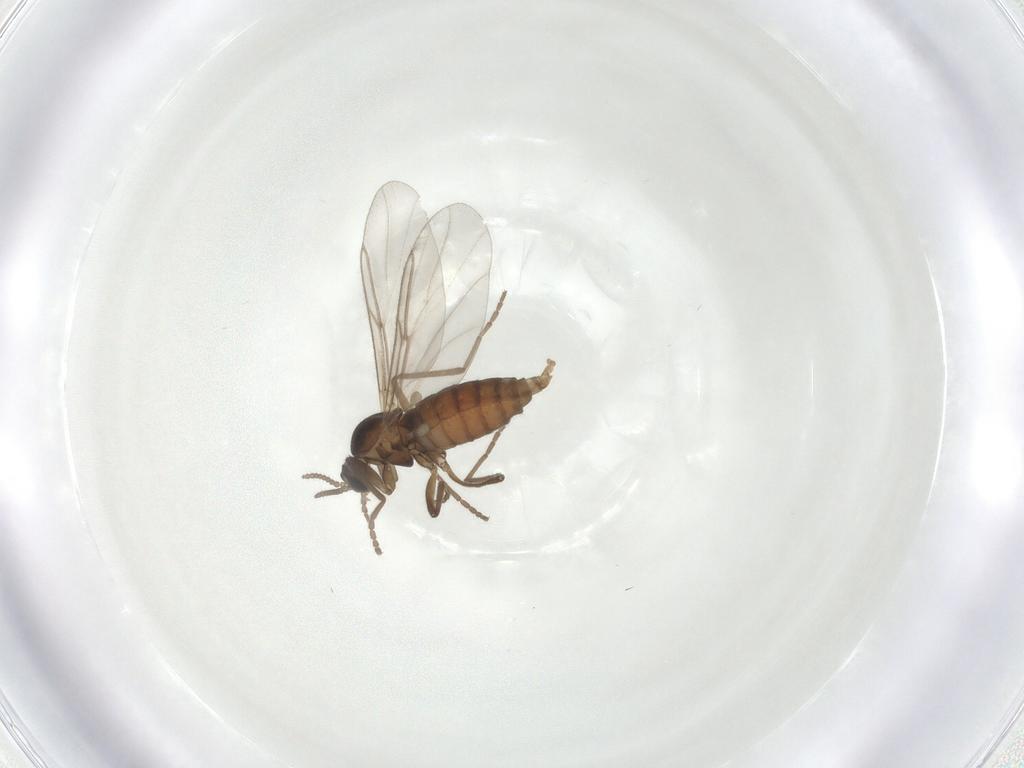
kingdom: Animalia
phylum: Arthropoda
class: Insecta
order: Diptera
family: Cecidomyiidae
